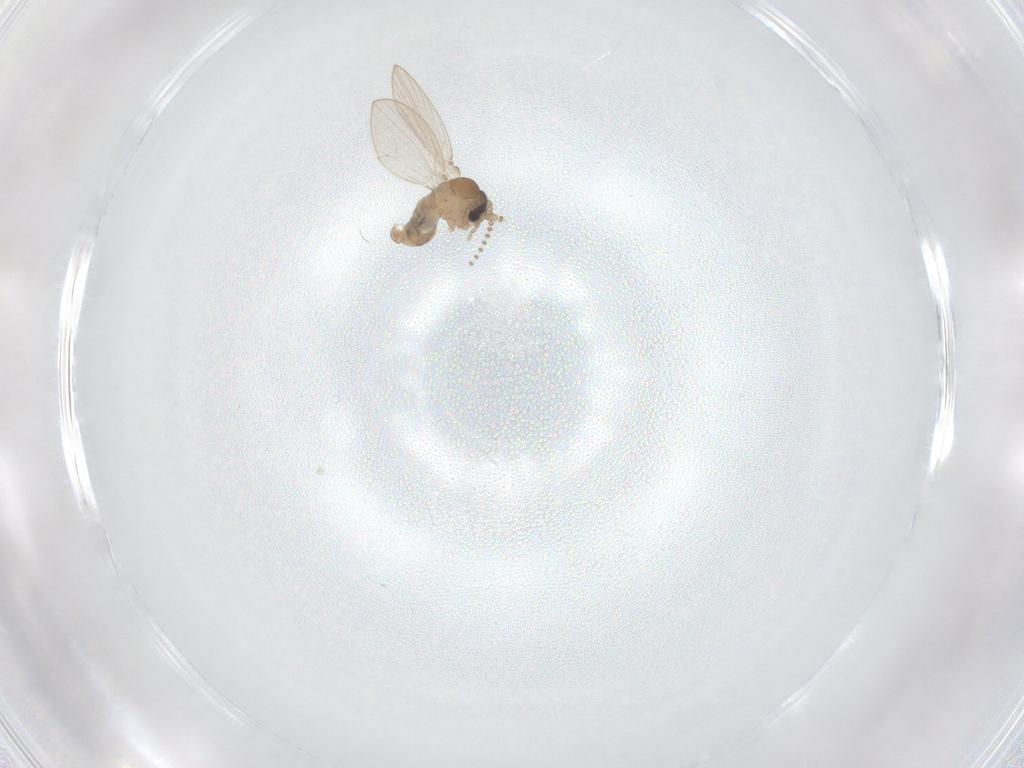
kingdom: Animalia
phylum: Arthropoda
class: Insecta
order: Diptera
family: Psychodidae
